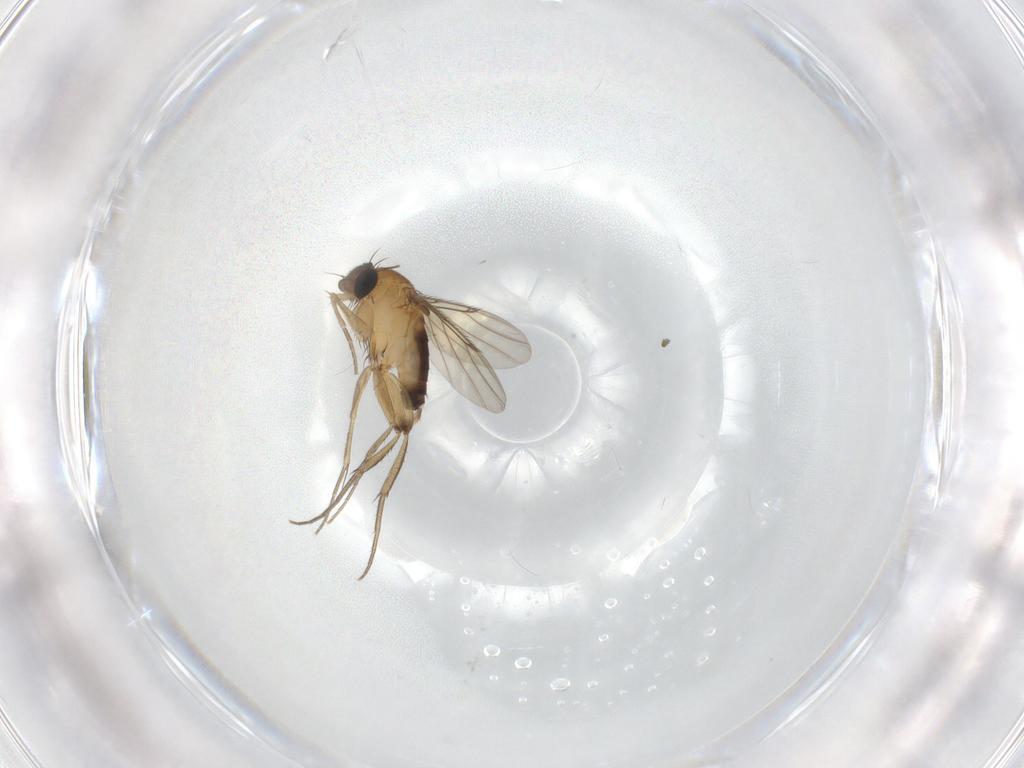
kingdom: Animalia
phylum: Arthropoda
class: Insecta
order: Diptera
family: Phoridae
